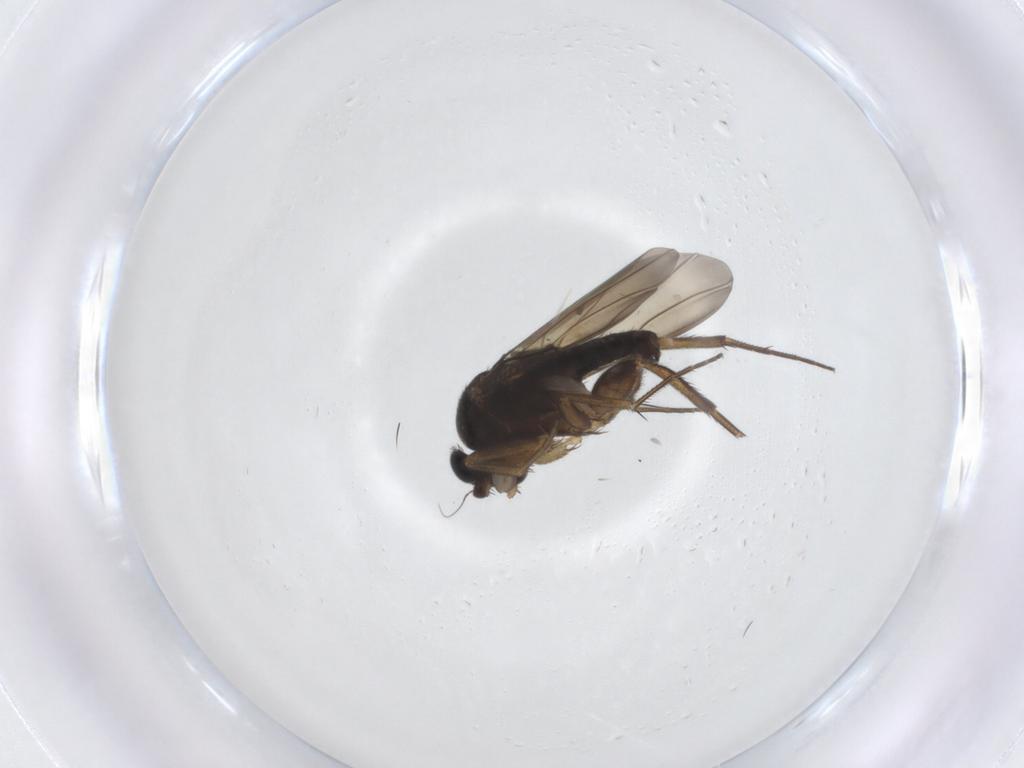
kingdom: Animalia
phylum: Arthropoda
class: Insecta
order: Diptera
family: Phoridae
